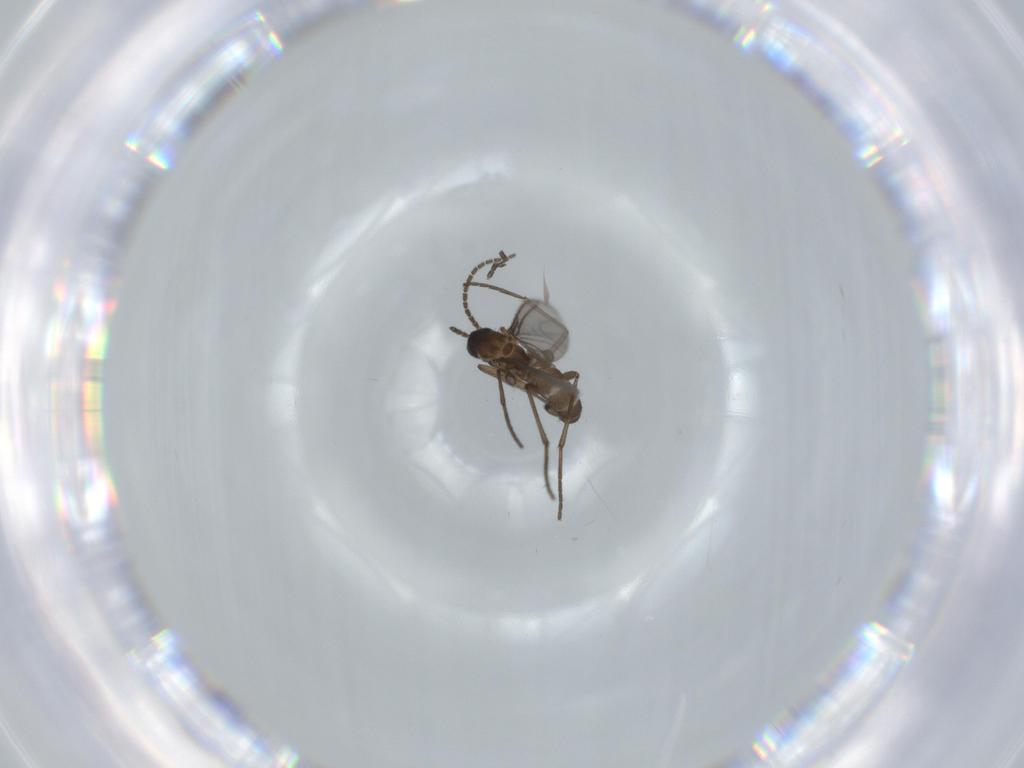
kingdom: Animalia
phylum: Arthropoda
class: Insecta
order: Diptera
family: Sciaridae
